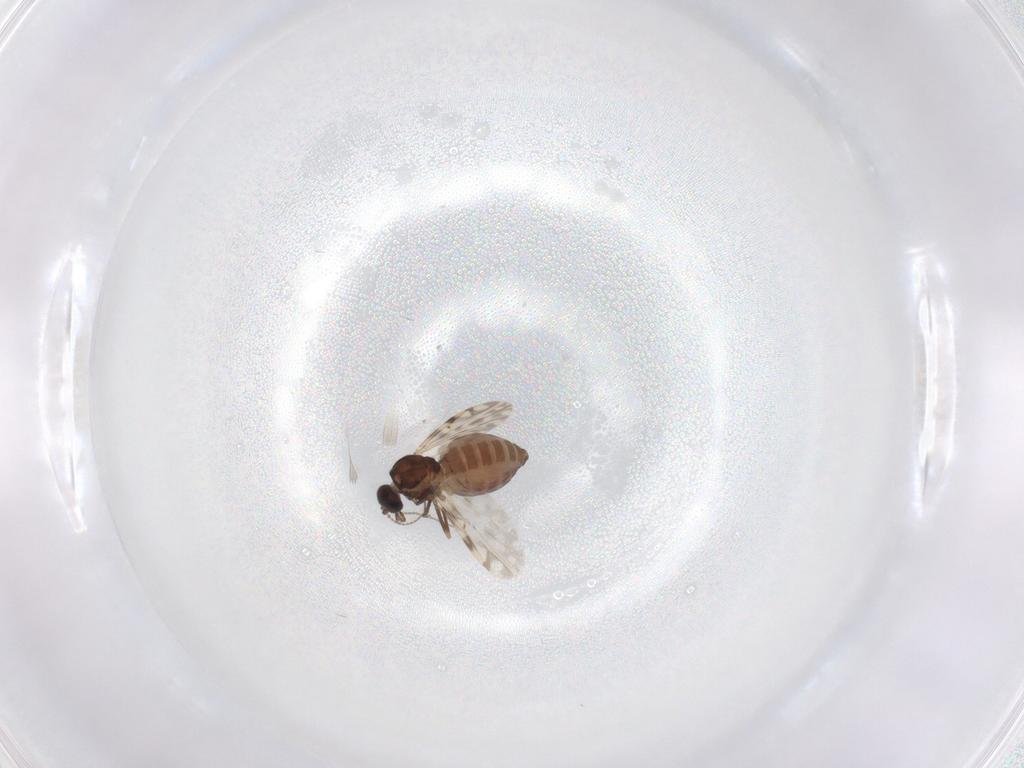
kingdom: Animalia
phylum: Arthropoda
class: Insecta
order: Diptera
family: Ceratopogonidae
